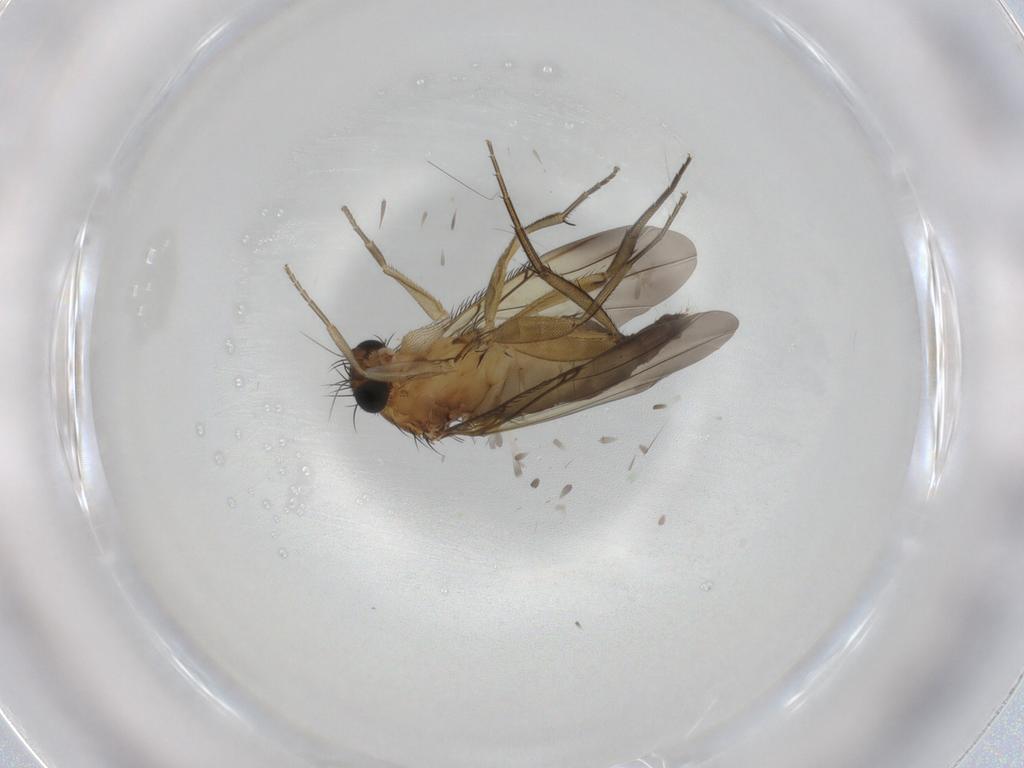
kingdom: Animalia
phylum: Arthropoda
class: Insecta
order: Diptera
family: Phoridae
